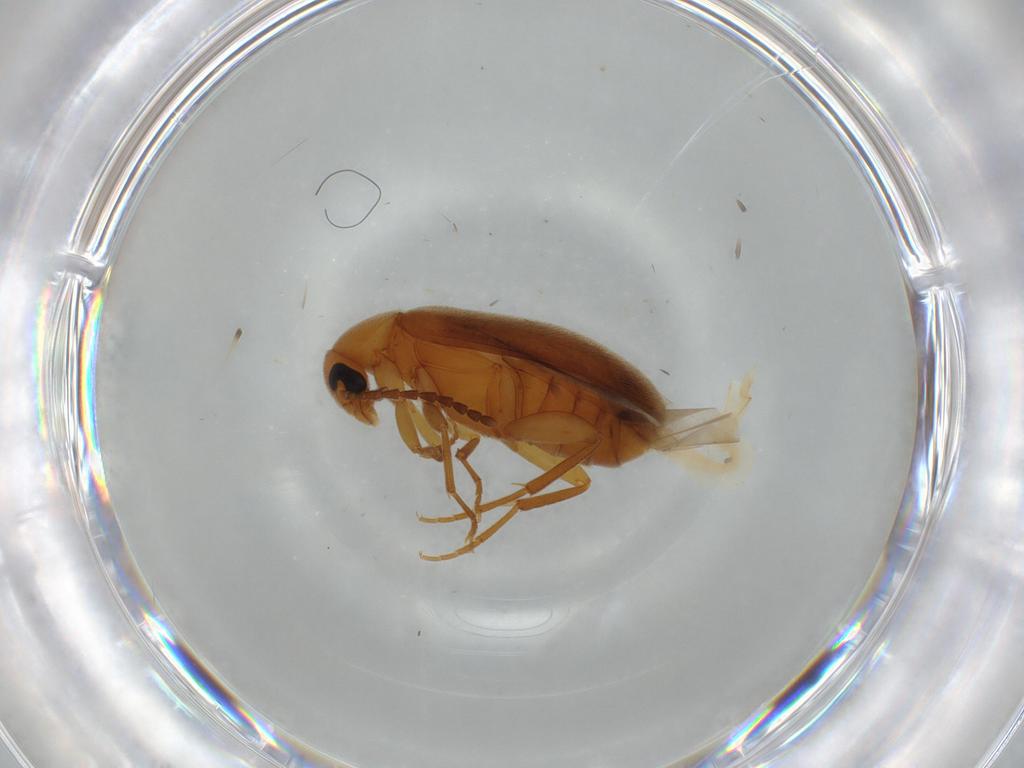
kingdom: Animalia
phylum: Arthropoda
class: Insecta
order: Coleoptera
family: Scraptiidae
